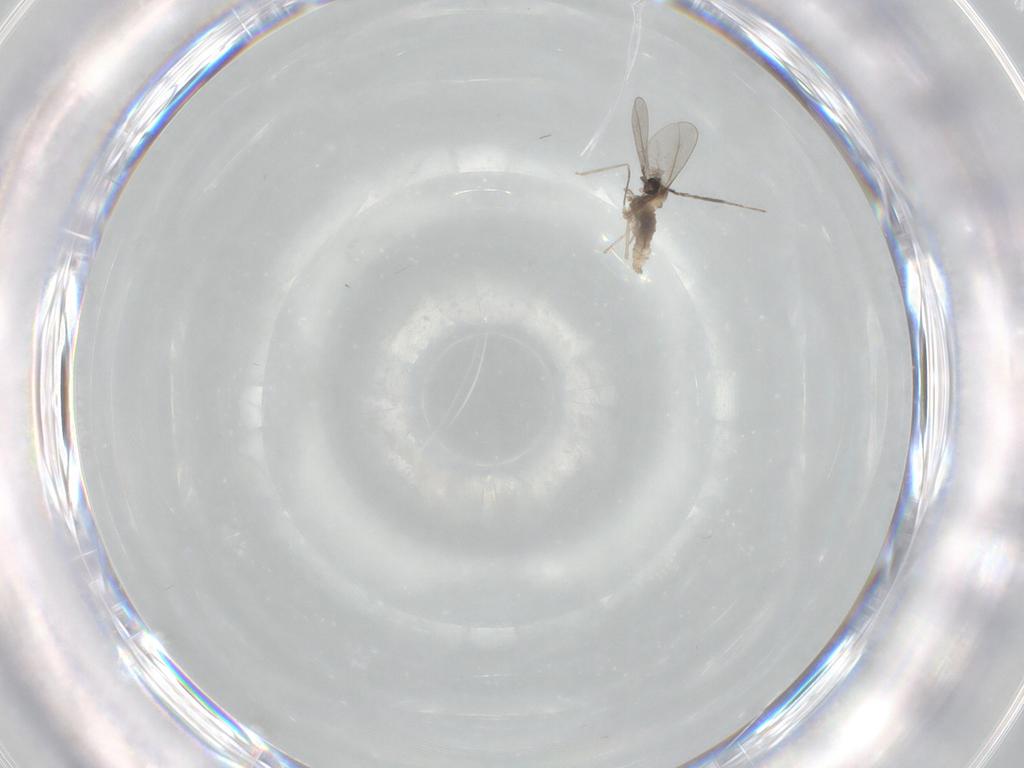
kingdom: Animalia
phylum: Arthropoda
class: Insecta
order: Diptera
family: Cecidomyiidae
